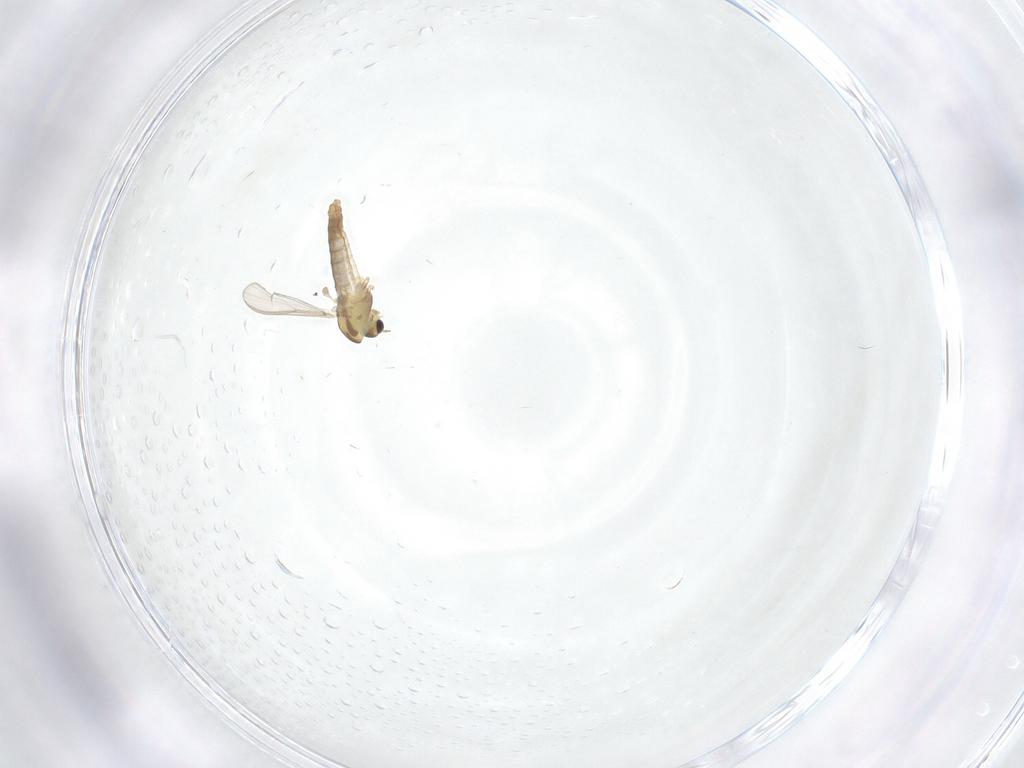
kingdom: Animalia
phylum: Arthropoda
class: Insecta
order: Diptera
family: Chironomidae
